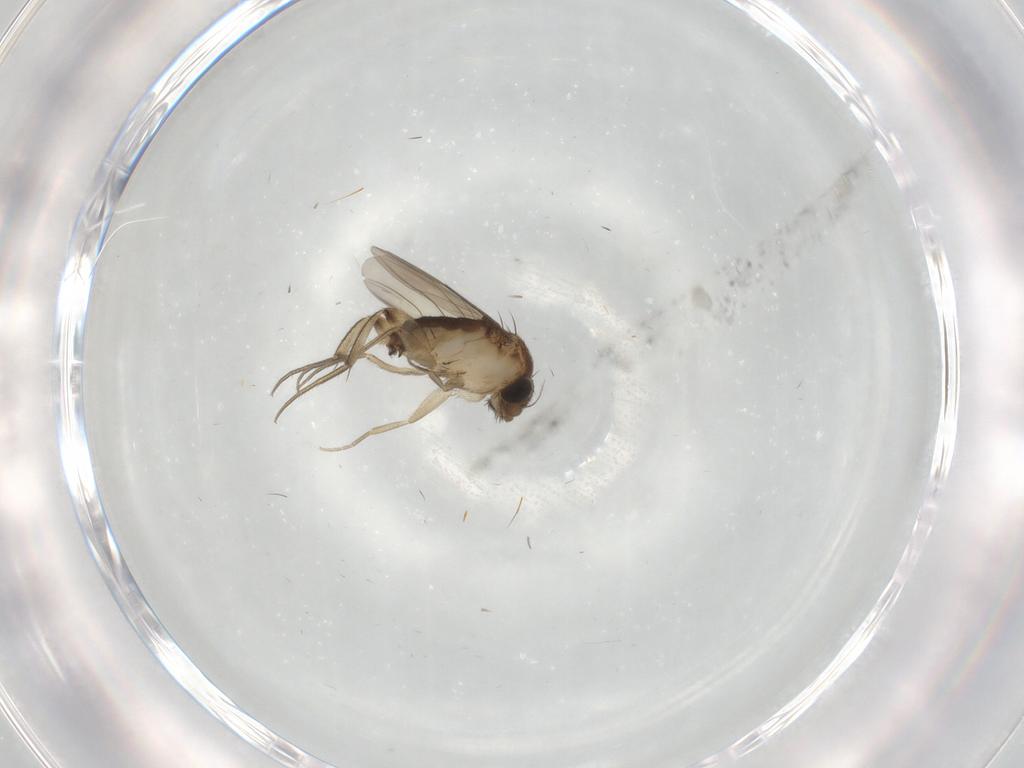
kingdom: Animalia
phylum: Arthropoda
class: Insecta
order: Diptera
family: Phoridae
